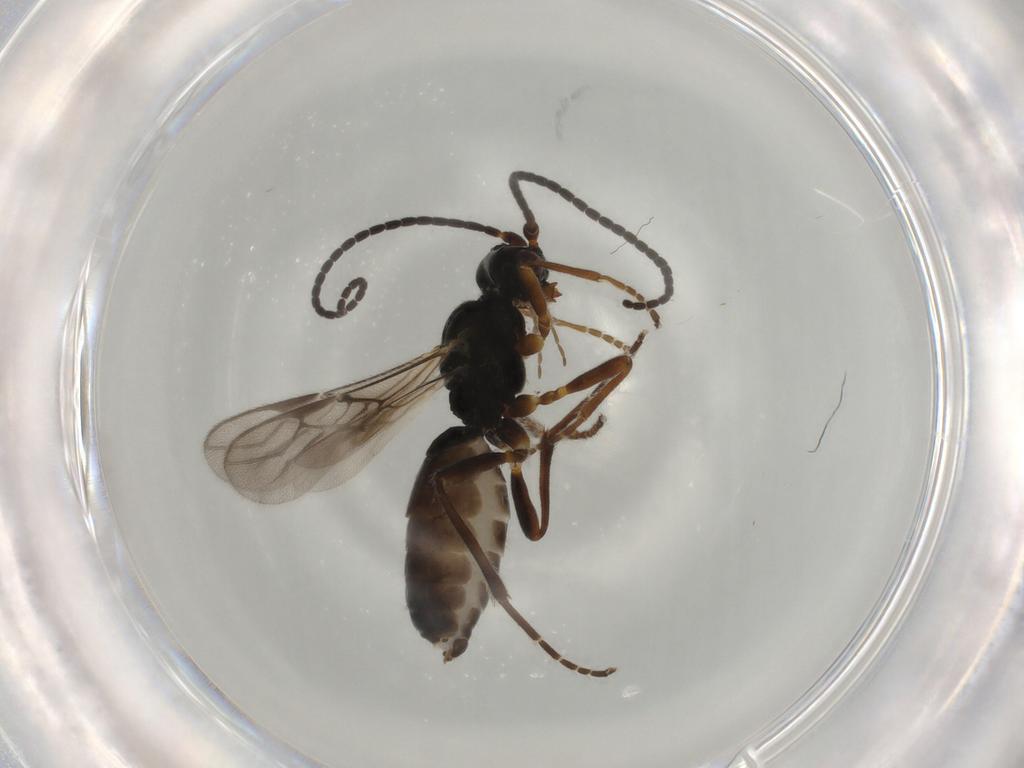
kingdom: Animalia
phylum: Arthropoda
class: Insecta
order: Hymenoptera
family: Braconidae
